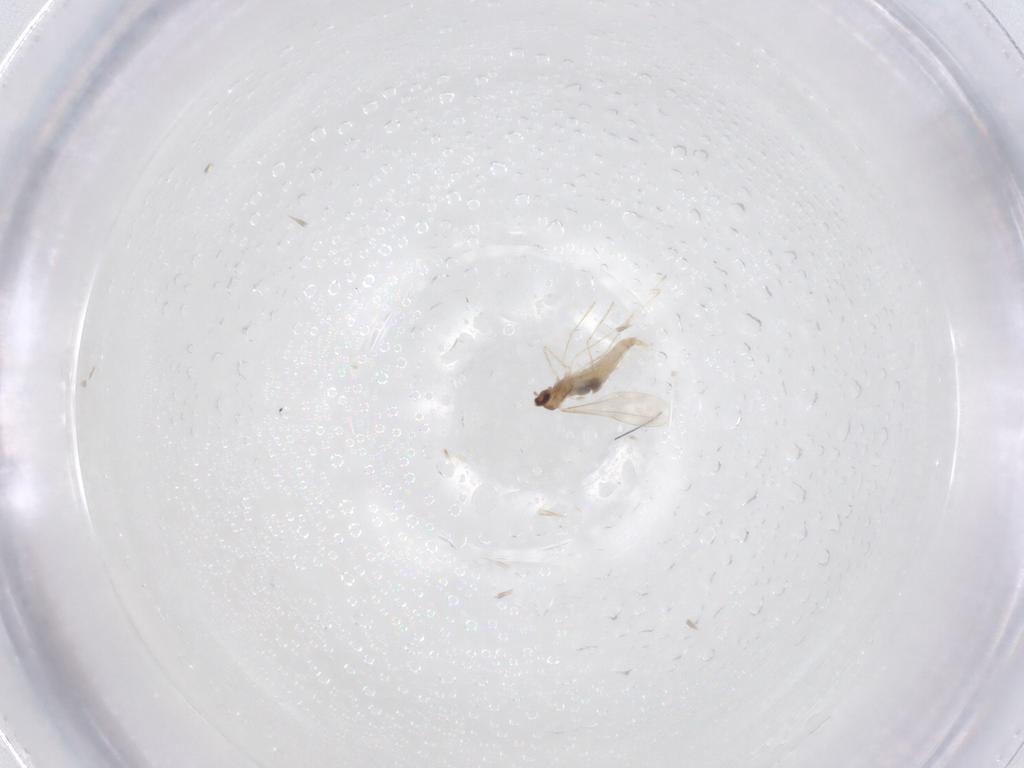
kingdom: Animalia
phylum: Arthropoda
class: Insecta
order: Diptera
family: Cecidomyiidae
